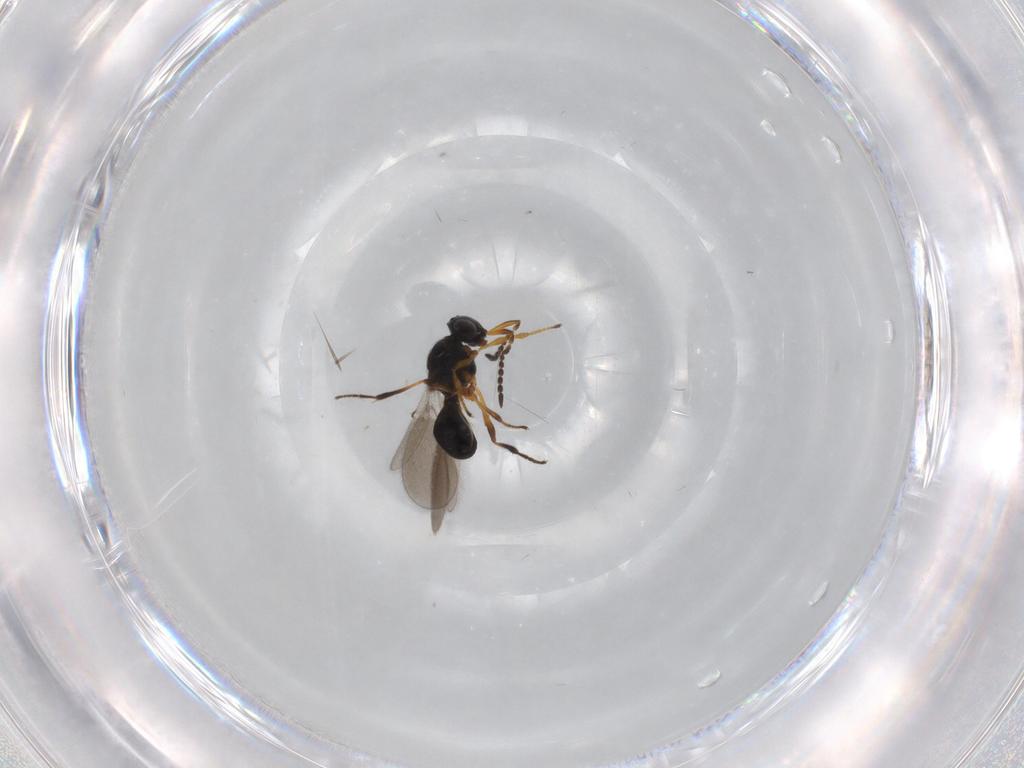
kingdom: Animalia
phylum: Arthropoda
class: Insecta
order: Hymenoptera
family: Platygastridae
